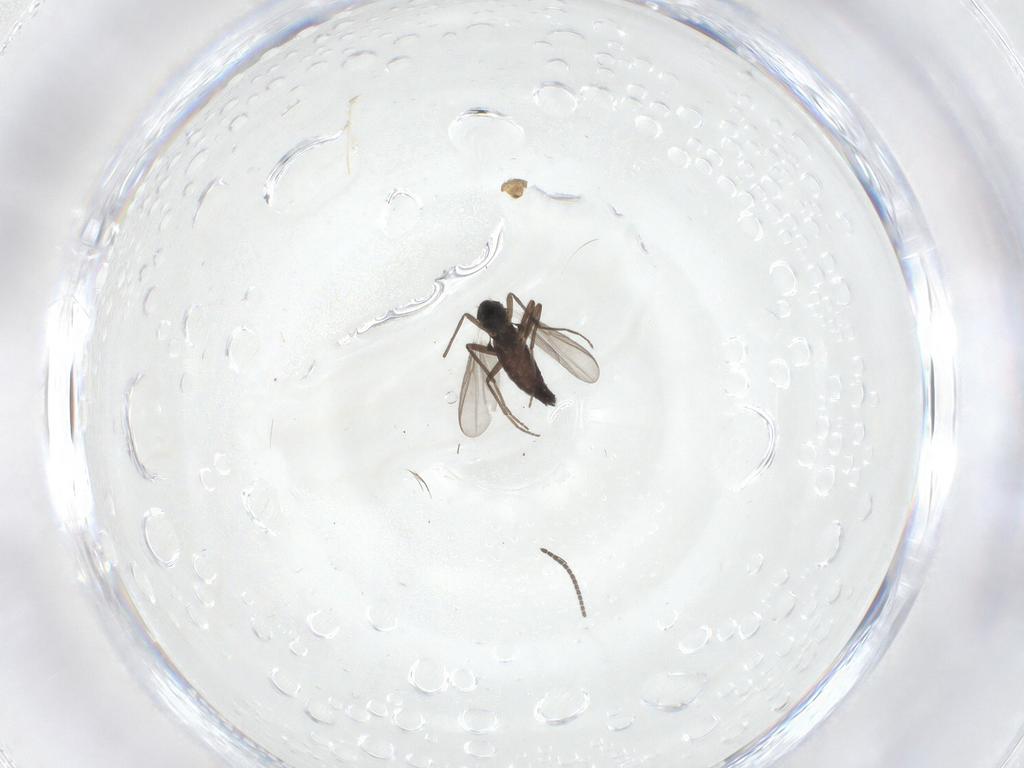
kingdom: Animalia
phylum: Arthropoda
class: Insecta
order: Diptera
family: Chironomidae
